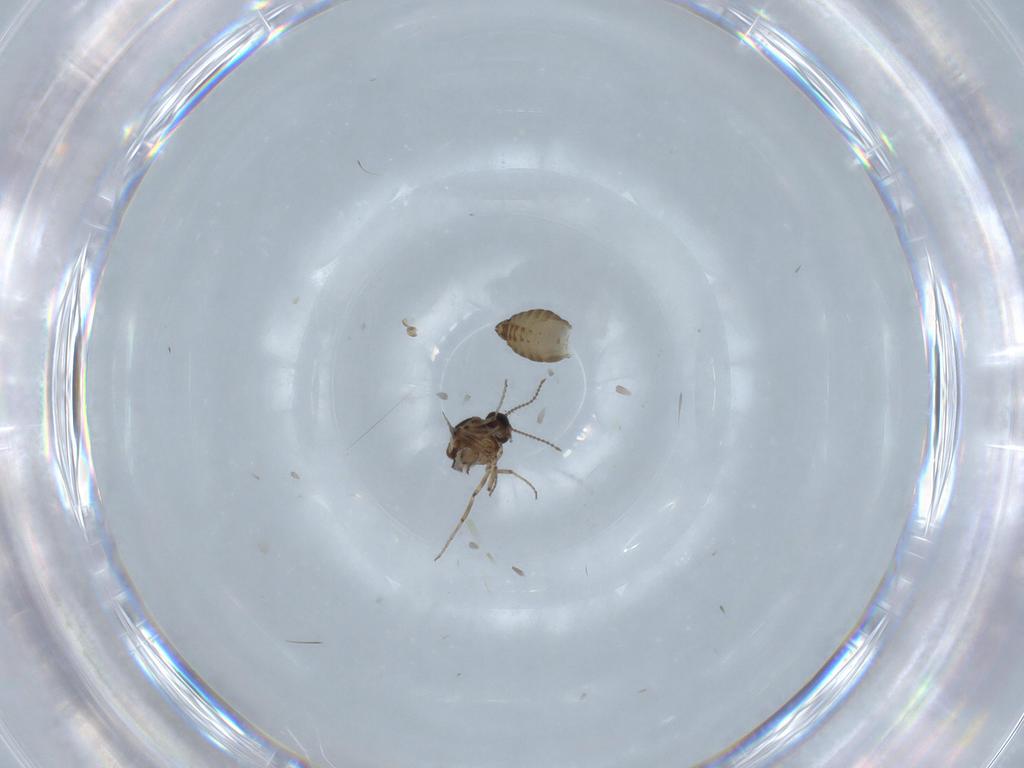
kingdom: Animalia
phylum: Arthropoda
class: Insecta
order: Diptera
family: Ceratopogonidae
